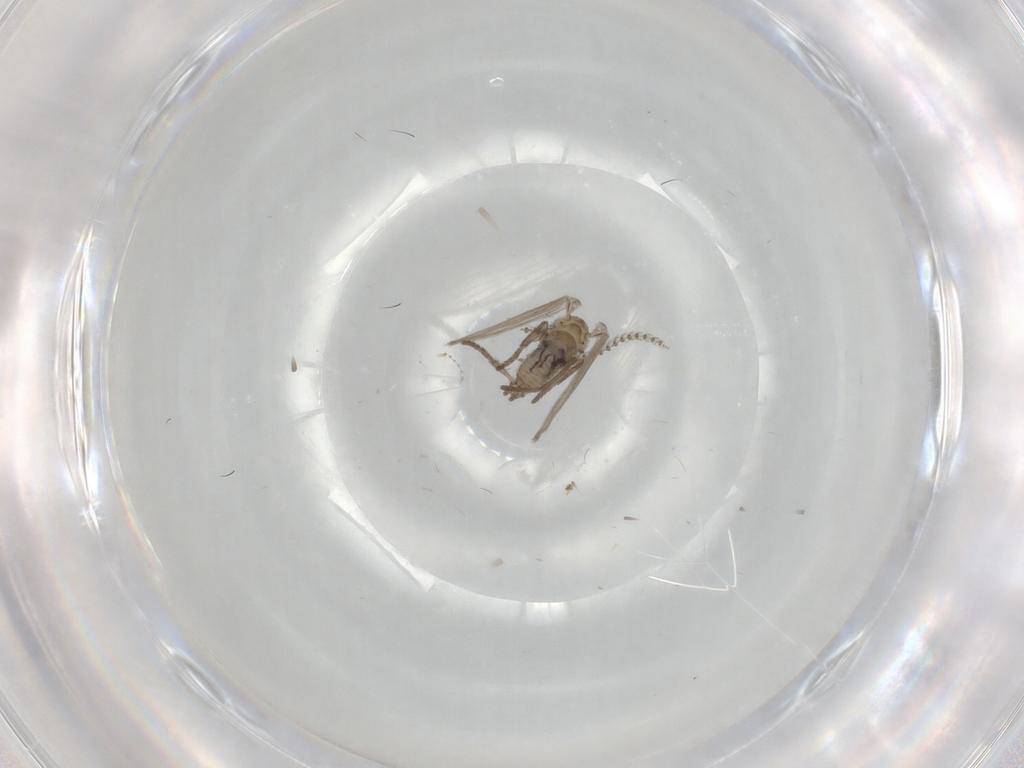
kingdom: Animalia
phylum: Arthropoda
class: Insecta
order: Diptera
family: Psychodidae
